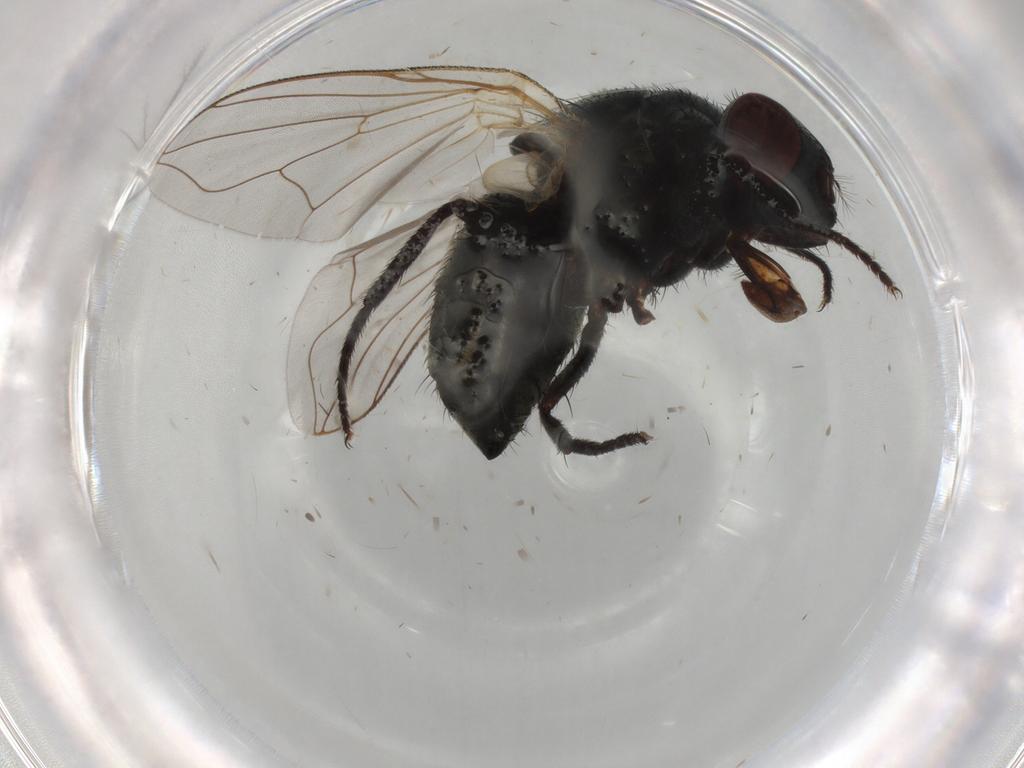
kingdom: Animalia
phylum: Arthropoda
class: Insecta
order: Diptera
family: Muscidae
